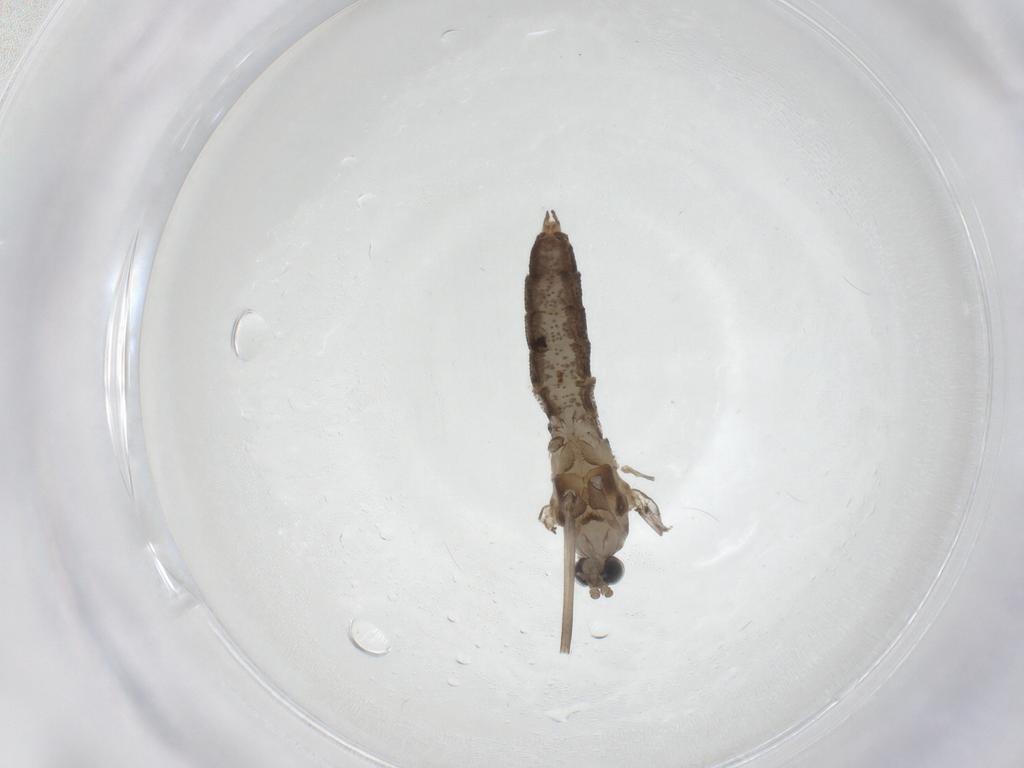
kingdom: Animalia
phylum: Arthropoda
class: Insecta
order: Diptera
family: Cecidomyiidae
